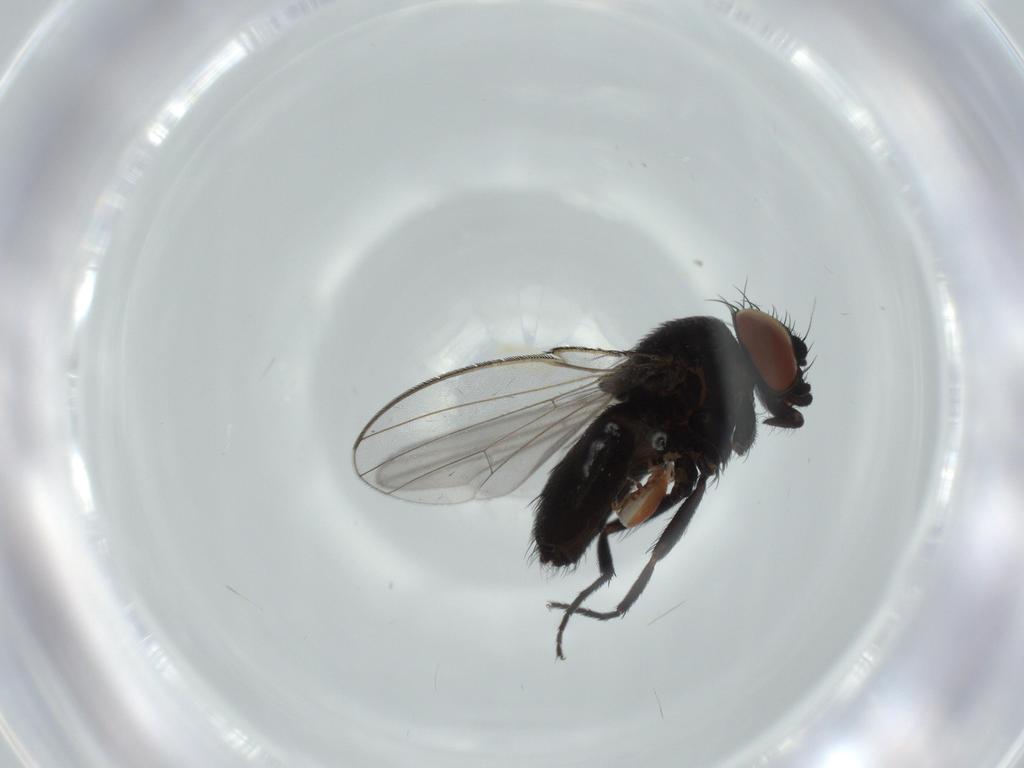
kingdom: Animalia
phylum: Arthropoda
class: Insecta
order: Diptera
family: Milichiidae
